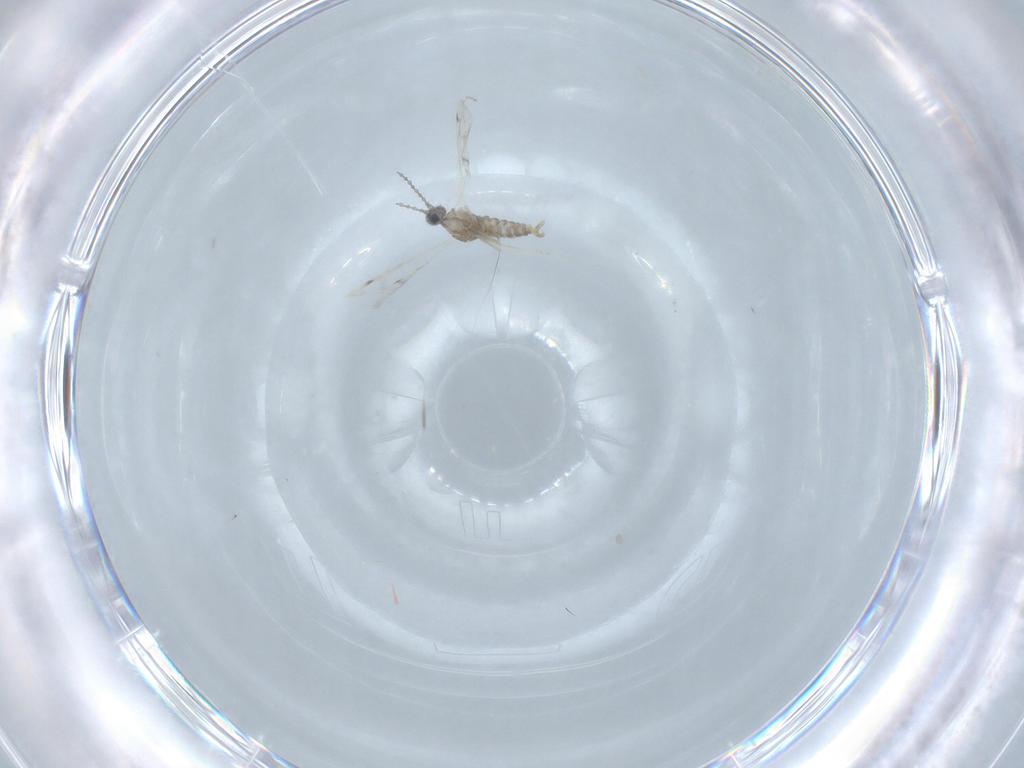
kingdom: Animalia
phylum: Arthropoda
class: Insecta
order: Diptera
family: Cecidomyiidae
